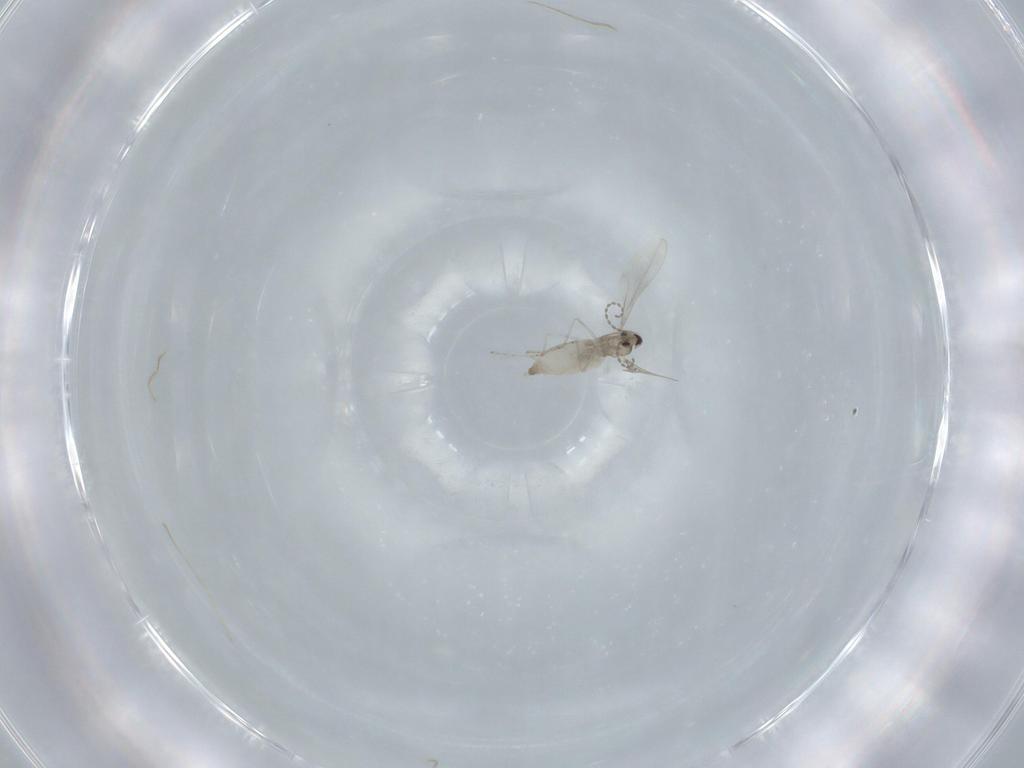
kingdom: Animalia
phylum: Arthropoda
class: Insecta
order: Diptera
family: Cecidomyiidae
